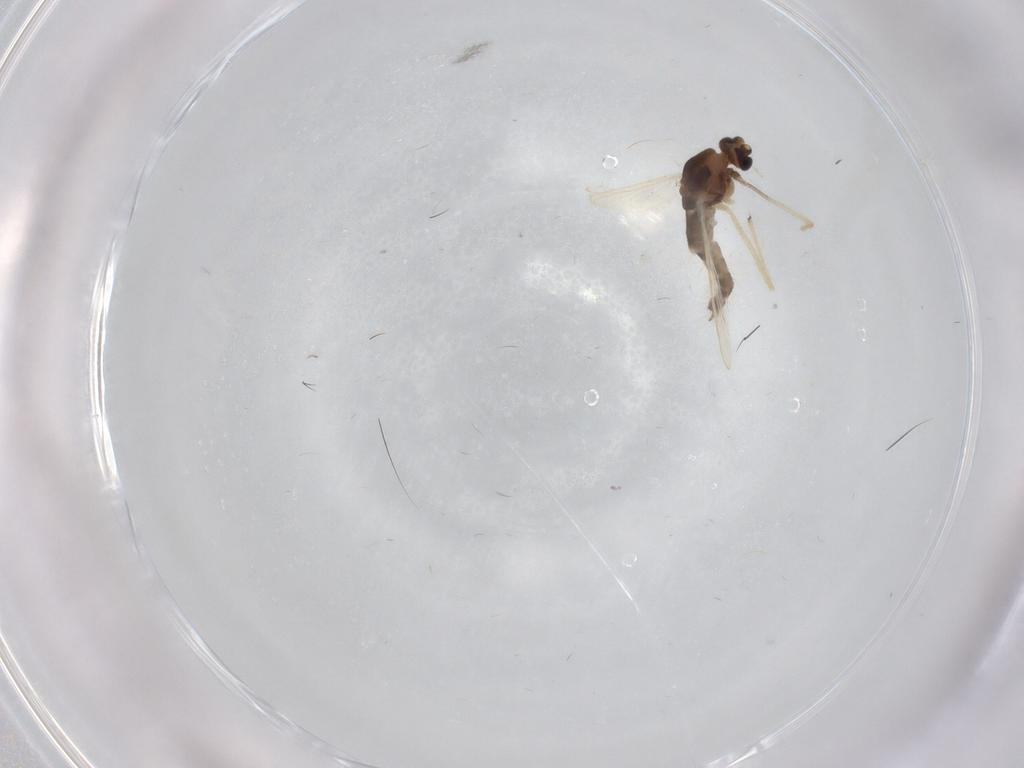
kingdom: Animalia
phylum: Arthropoda
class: Insecta
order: Diptera
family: Chironomidae
